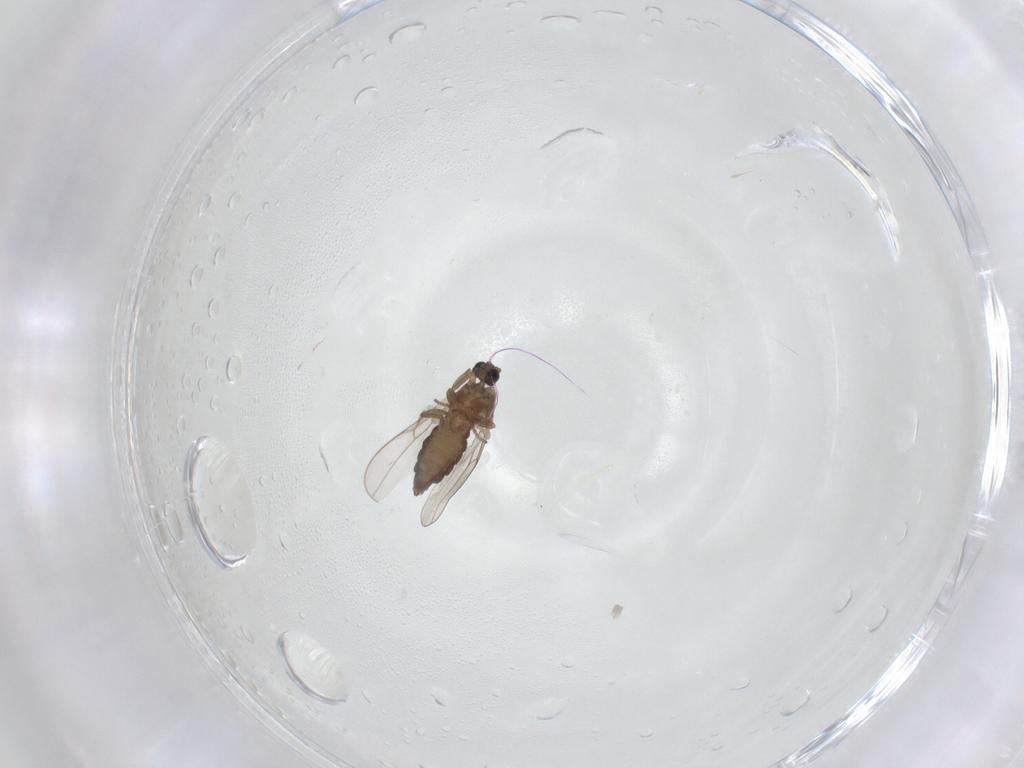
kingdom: Animalia
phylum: Arthropoda
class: Insecta
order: Diptera
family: Cecidomyiidae
